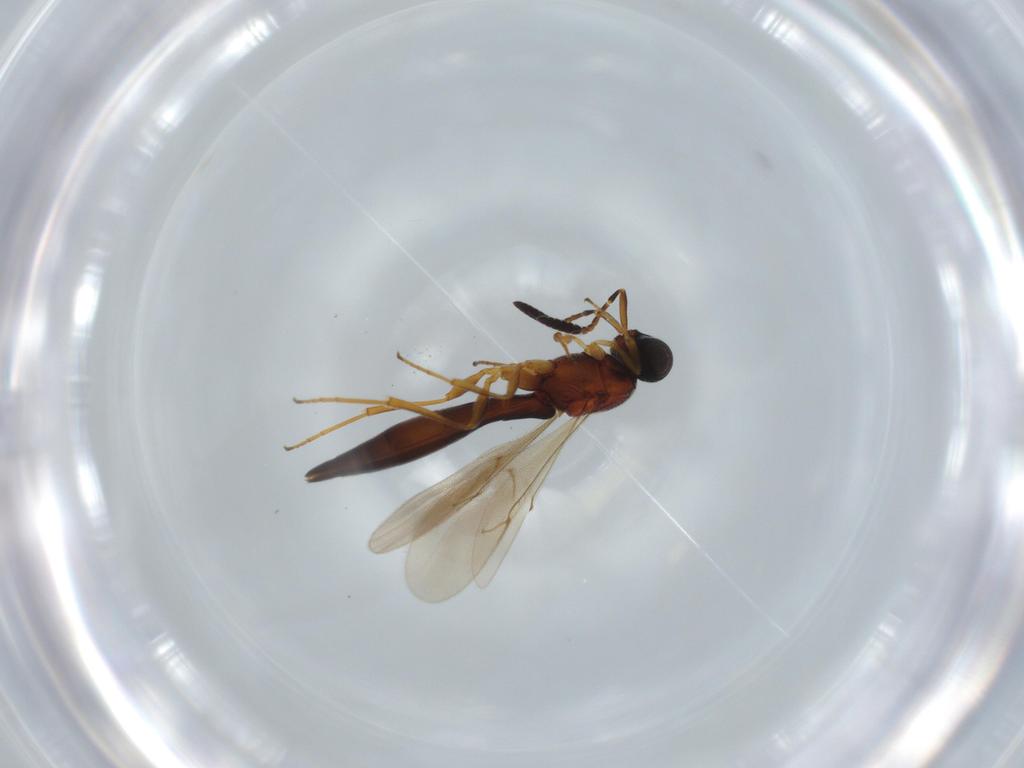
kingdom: Animalia
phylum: Arthropoda
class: Insecta
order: Hymenoptera
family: Scelionidae
